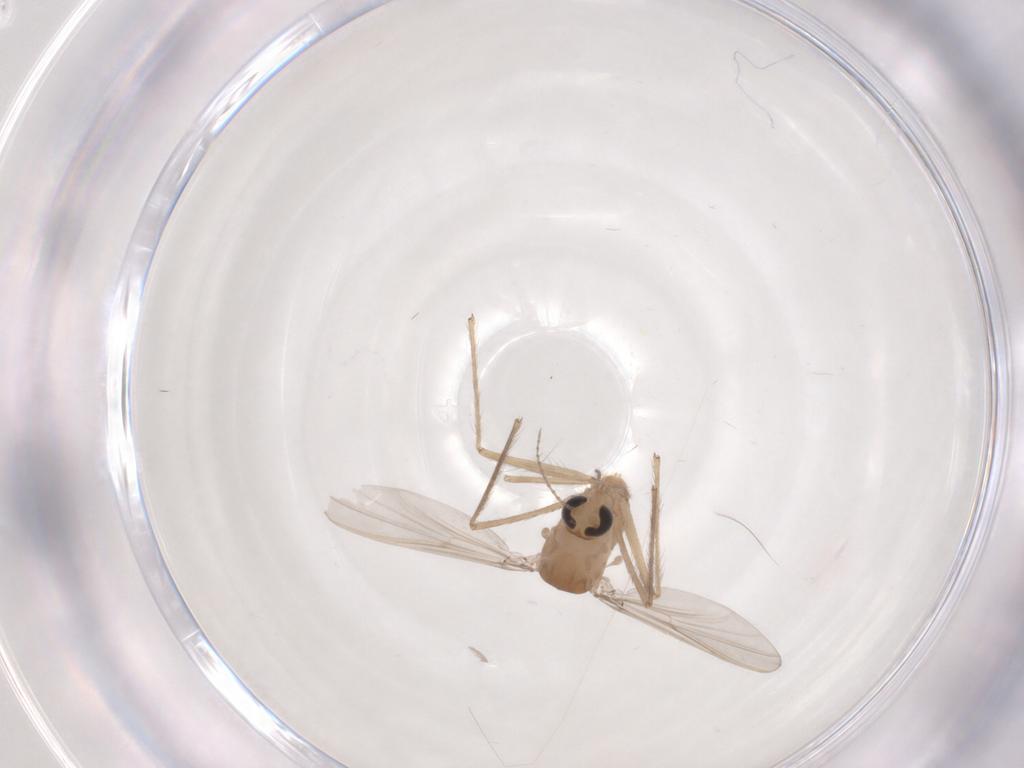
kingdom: Animalia
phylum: Arthropoda
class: Insecta
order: Diptera
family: Chironomidae
